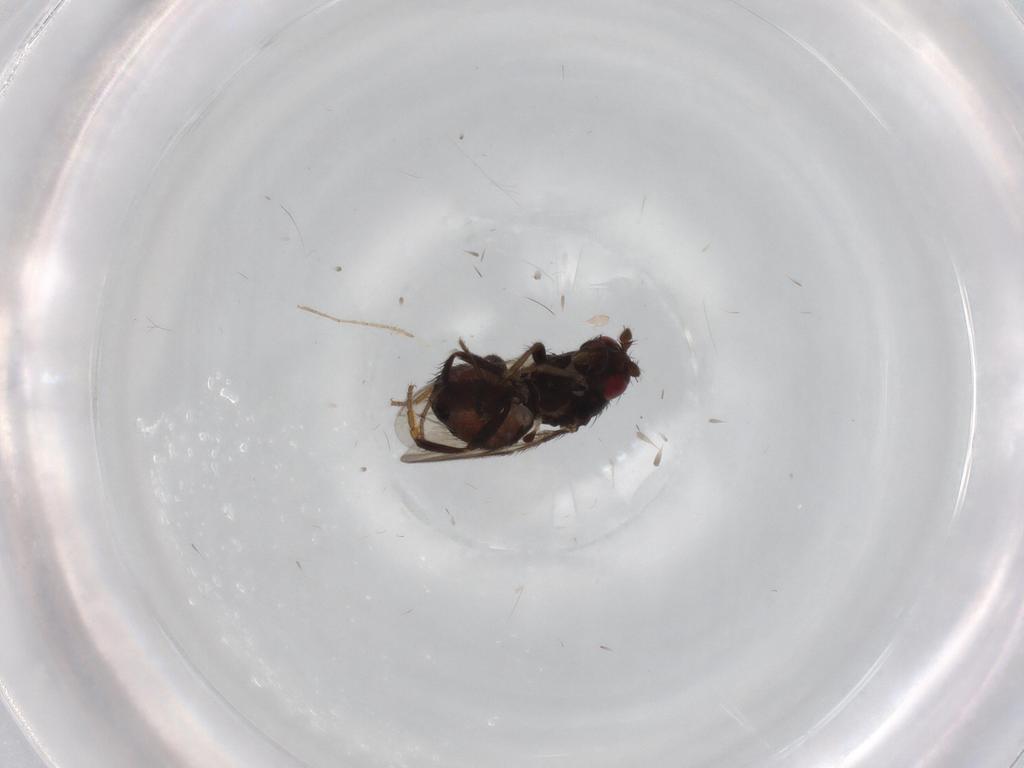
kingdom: Animalia
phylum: Arthropoda
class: Insecta
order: Diptera
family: Sphaeroceridae
